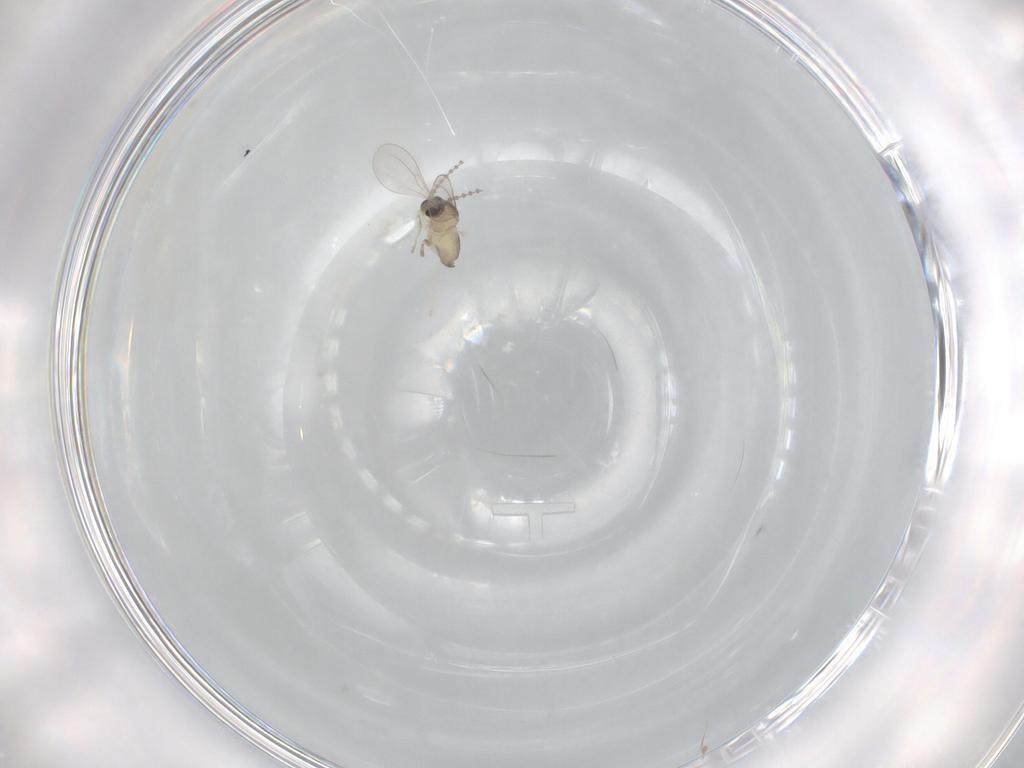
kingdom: Animalia
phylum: Arthropoda
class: Insecta
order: Diptera
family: Cecidomyiidae
